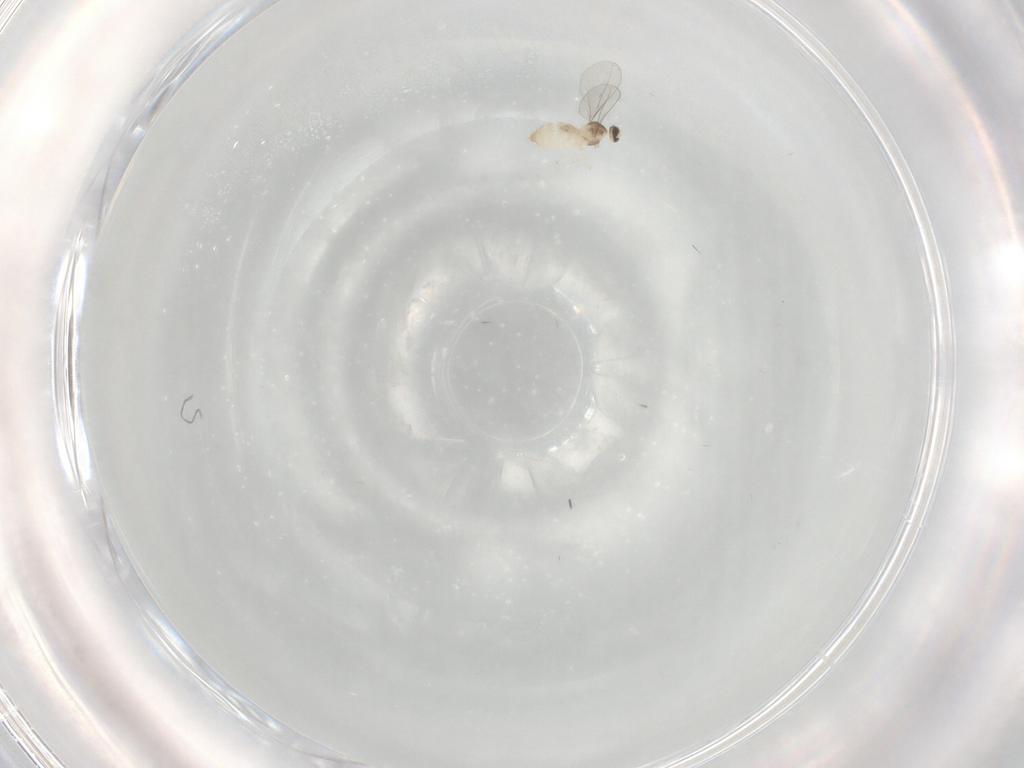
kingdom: Animalia
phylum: Arthropoda
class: Insecta
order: Diptera
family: Cecidomyiidae
